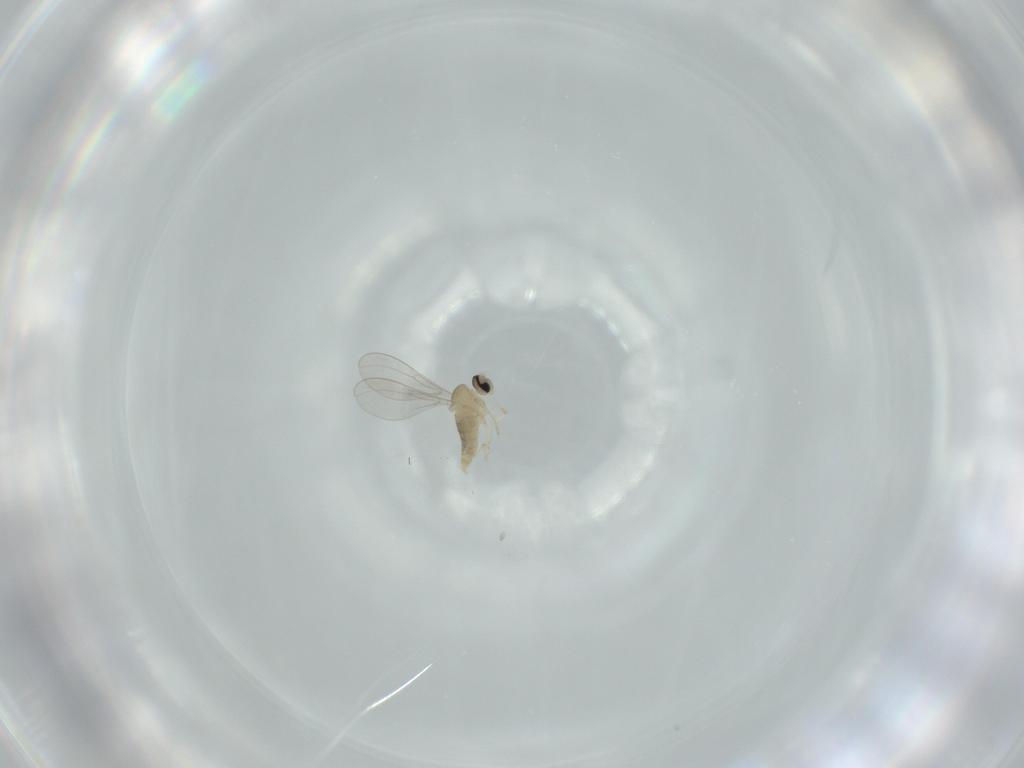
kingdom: Animalia
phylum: Arthropoda
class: Insecta
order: Diptera
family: Cecidomyiidae
